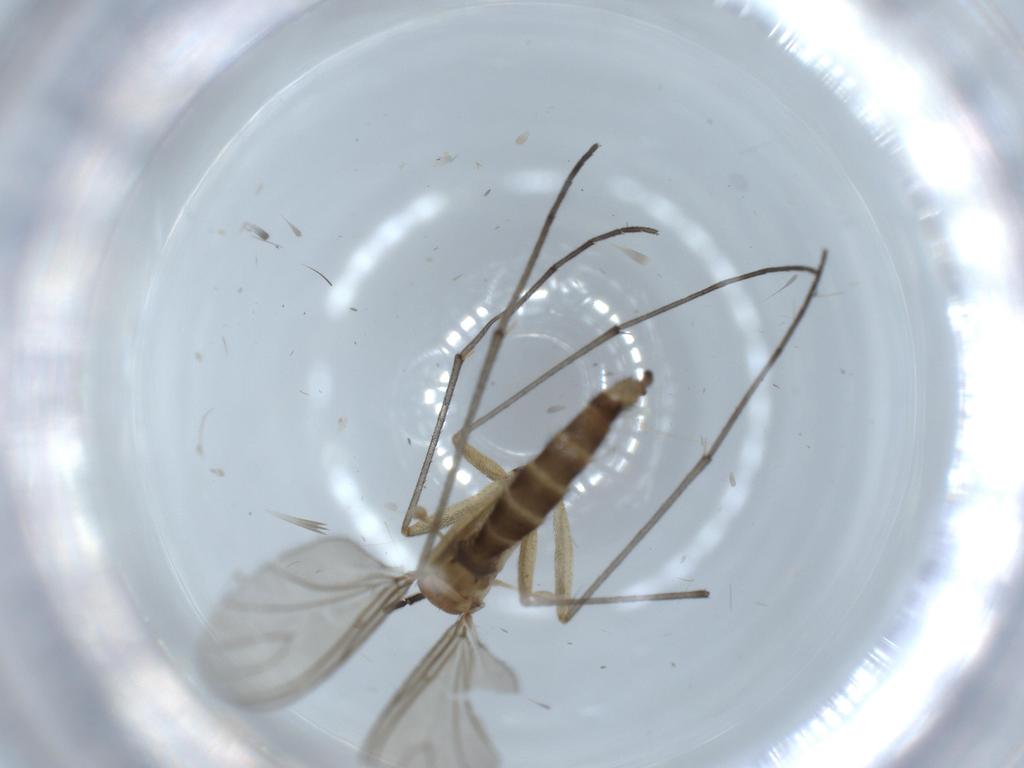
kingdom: Animalia
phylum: Arthropoda
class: Insecta
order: Diptera
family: Sciaridae
